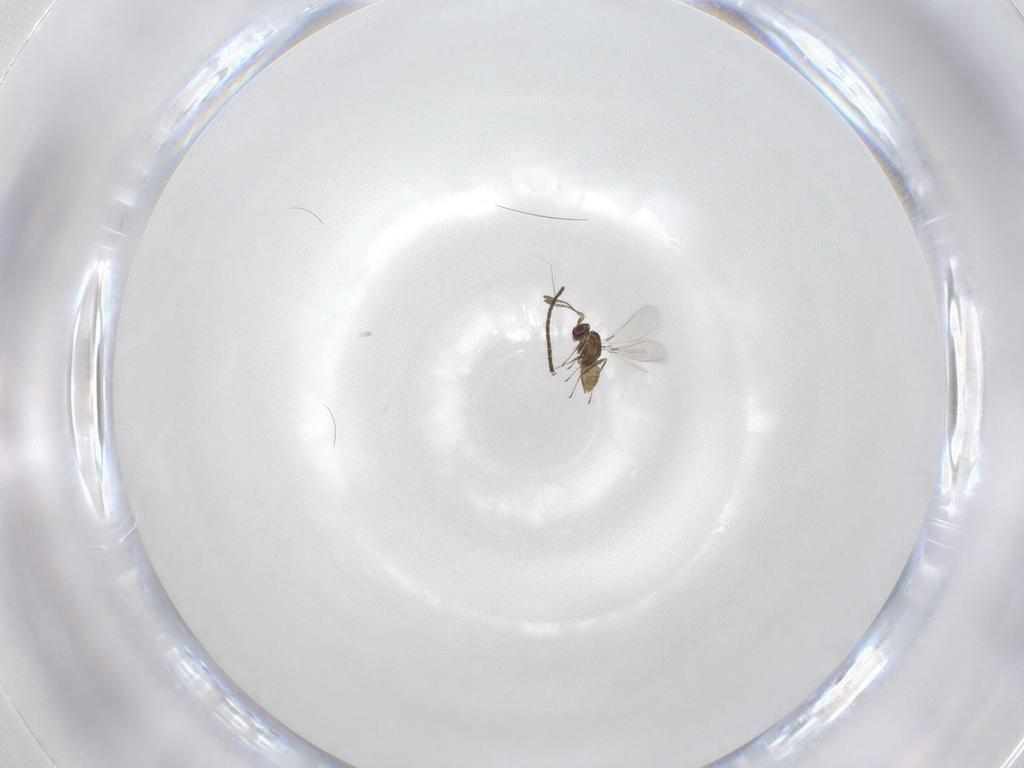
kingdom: Animalia
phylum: Arthropoda
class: Insecta
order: Hymenoptera
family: Mymaridae
